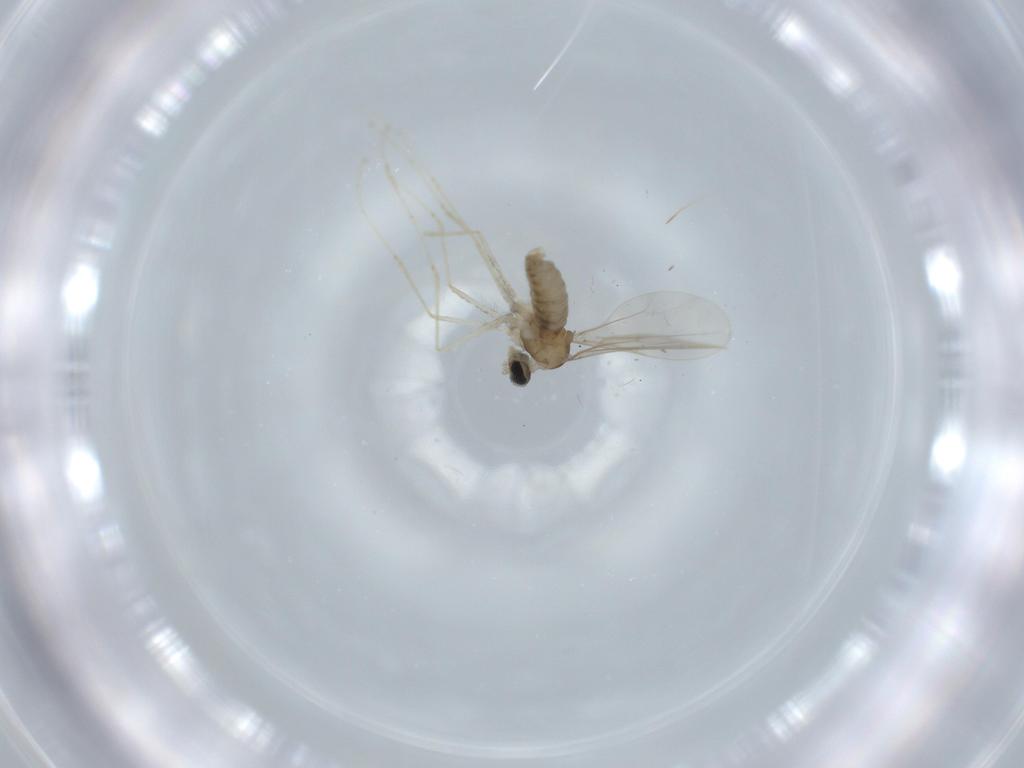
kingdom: Animalia
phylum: Arthropoda
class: Insecta
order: Diptera
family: Cecidomyiidae
